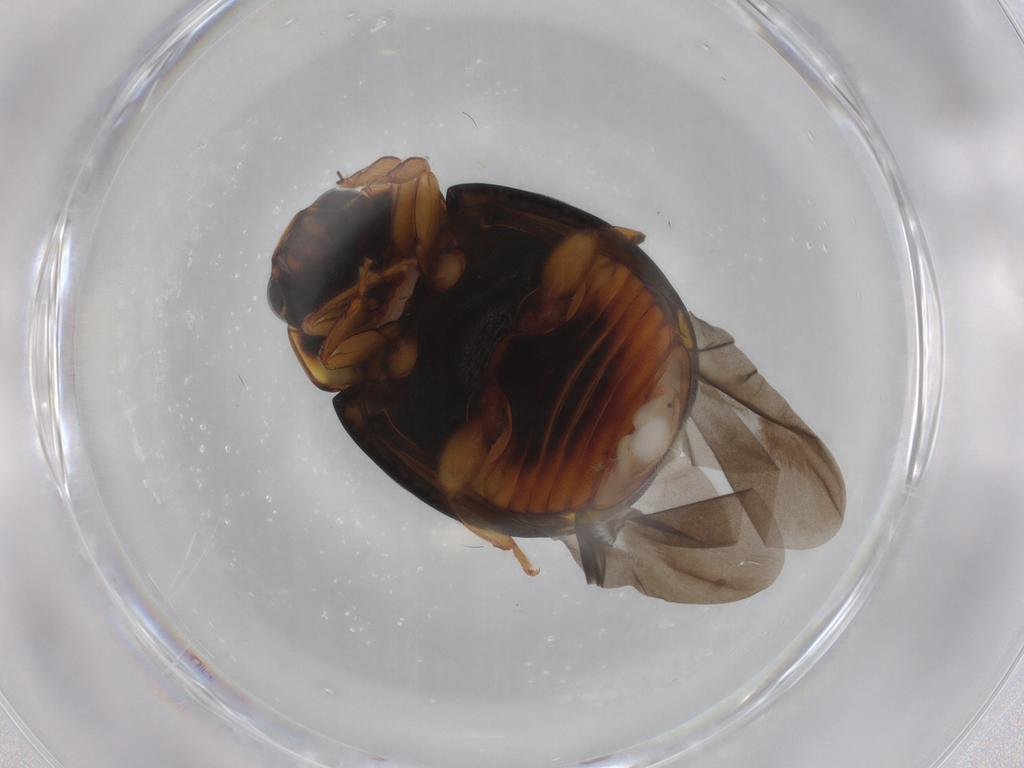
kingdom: Animalia
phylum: Arthropoda
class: Insecta
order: Coleoptera
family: Coccinellidae
